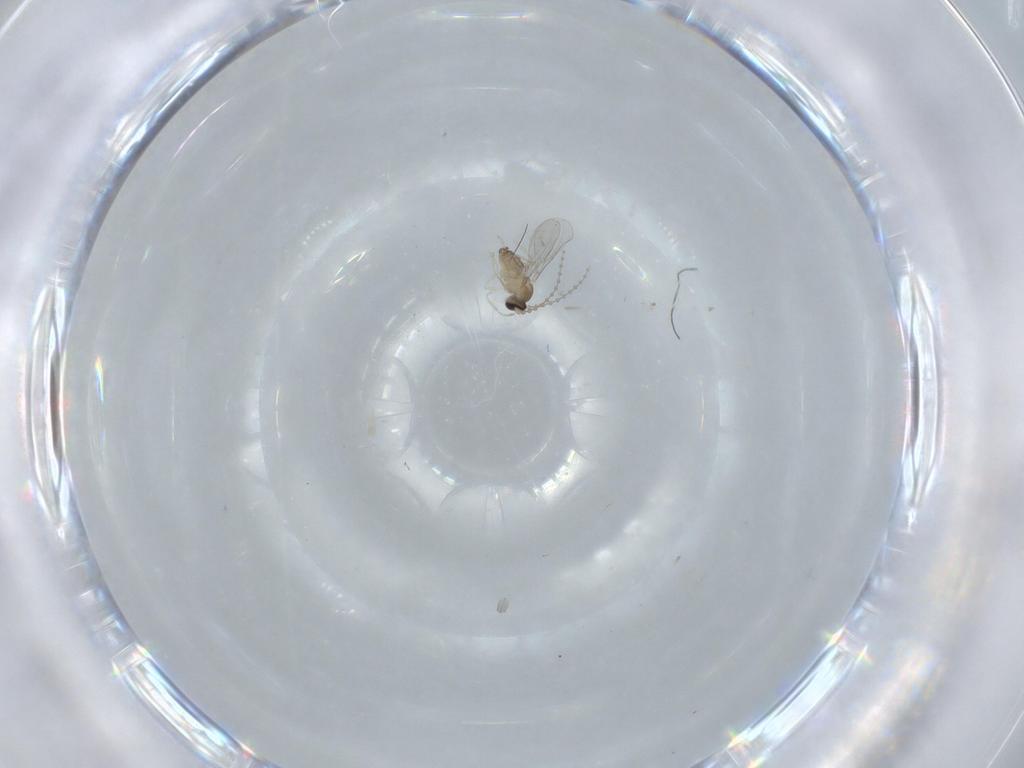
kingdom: Animalia
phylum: Arthropoda
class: Insecta
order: Diptera
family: Cecidomyiidae
